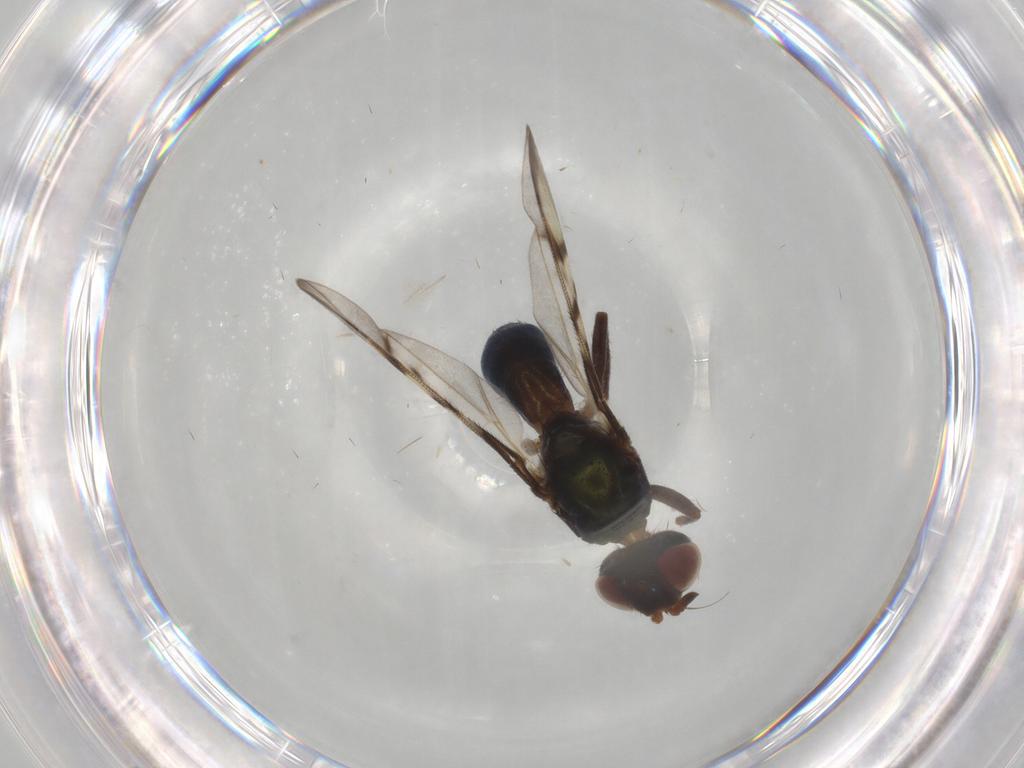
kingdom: Animalia
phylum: Arthropoda
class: Insecta
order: Diptera
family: Platystomatidae
